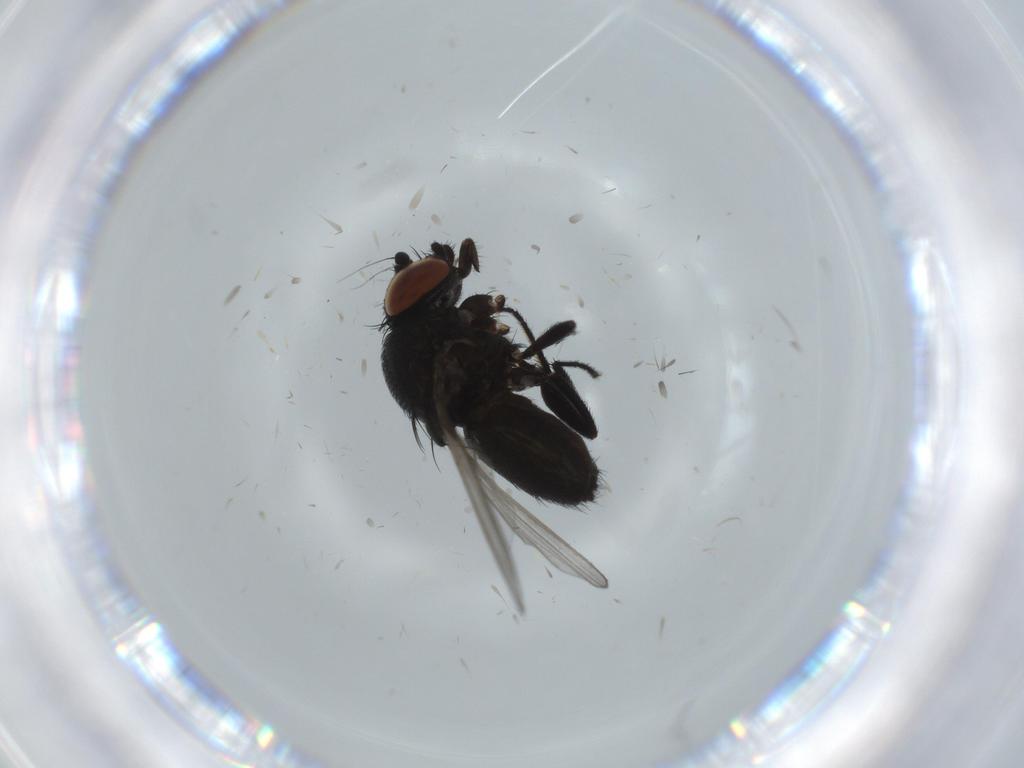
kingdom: Animalia
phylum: Arthropoda
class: Insecta
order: Diptera
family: Milichiidae
